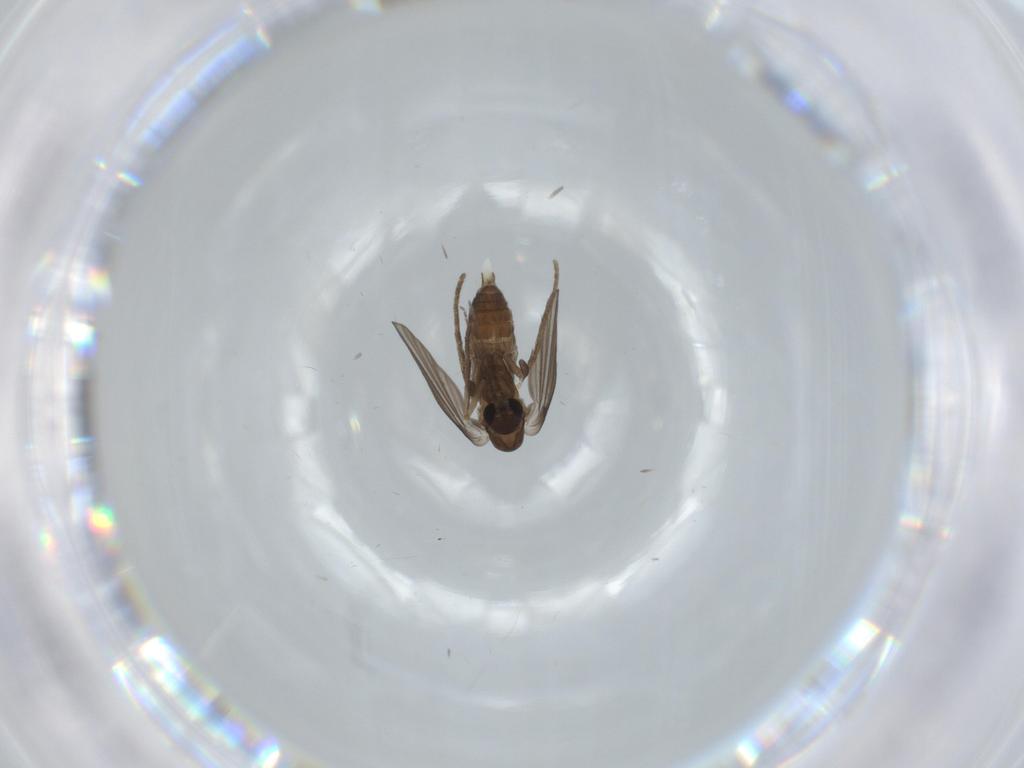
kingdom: Animalia
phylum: Arthropoda
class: Insecta
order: Diptera
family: Psychodidae
